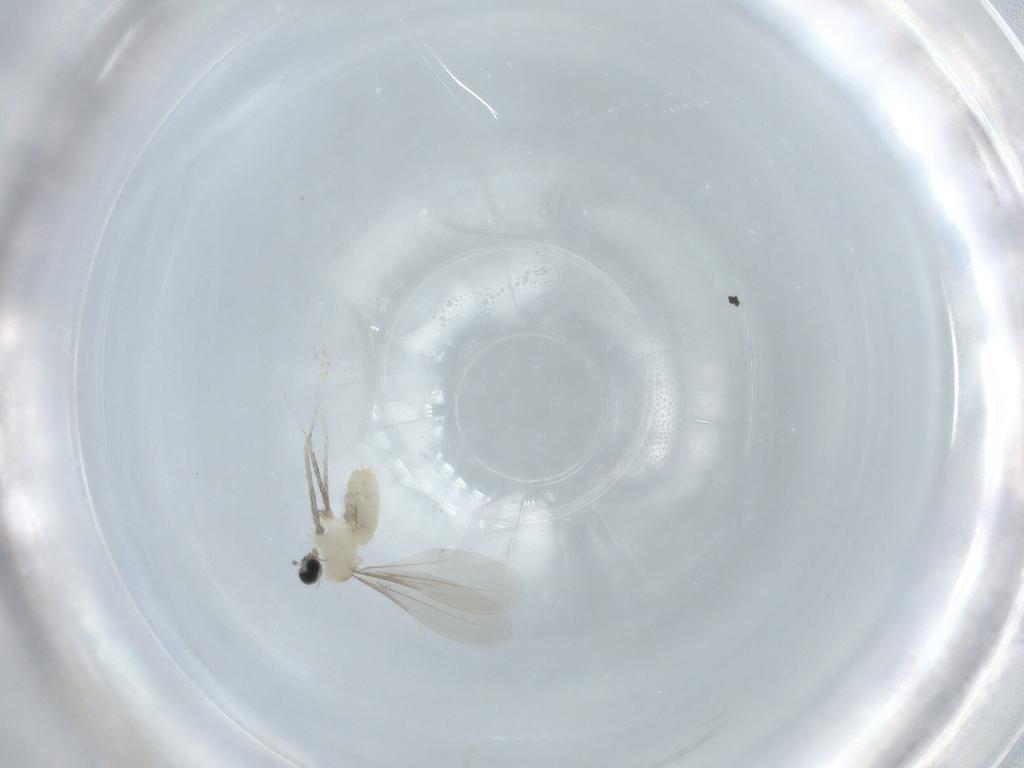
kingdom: Animalia
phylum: Arthropoda
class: Insecta
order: Diptera
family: Cecidomyiidae
